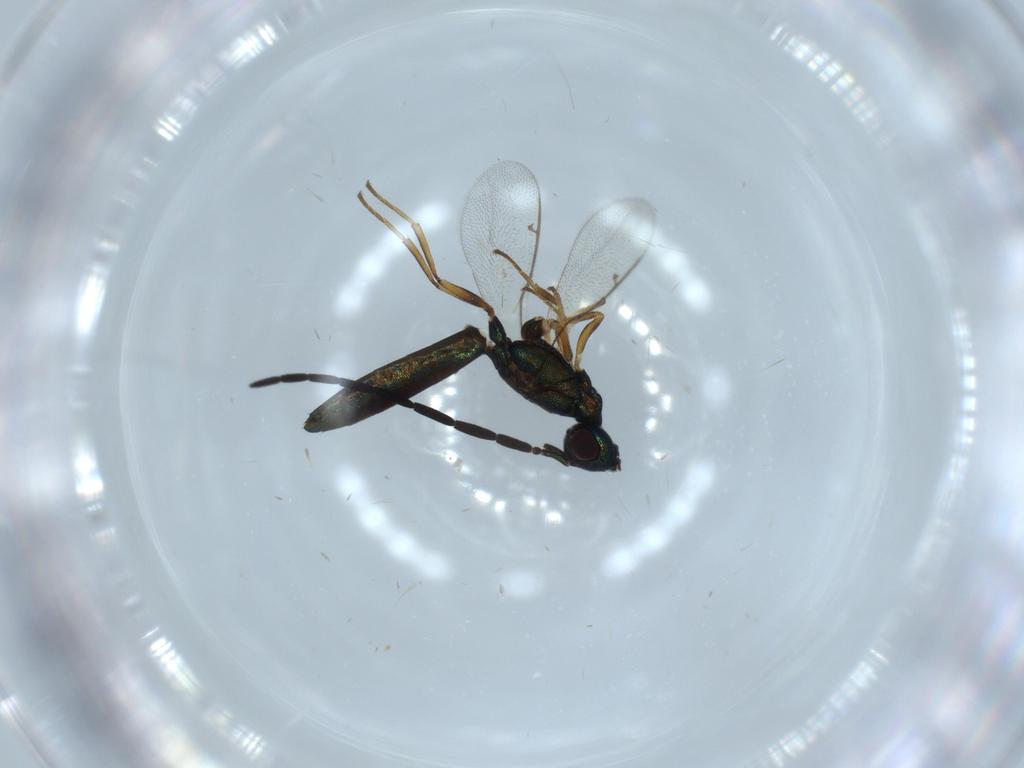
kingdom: Animalia
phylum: Arthropoda
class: Insecta
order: Hymenoptera
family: Eupelmidae
